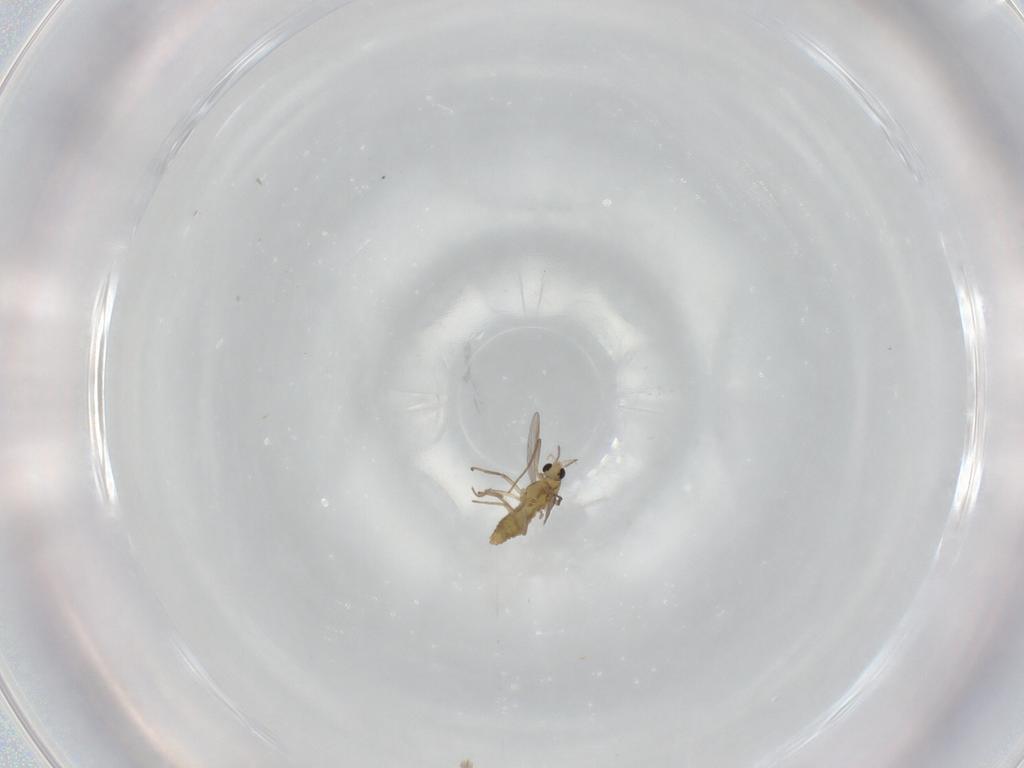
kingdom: Animalia
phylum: Arthropoda
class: Insecta
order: Diptera
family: Chironomidae
